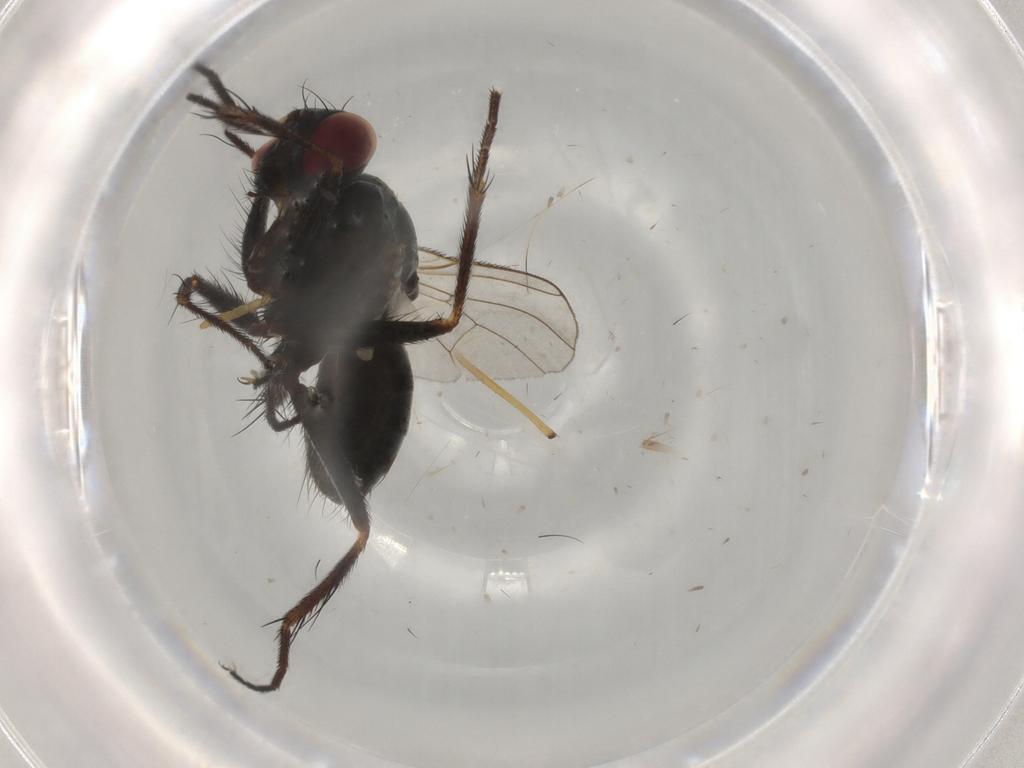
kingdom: Animalia
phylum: Arthropoda
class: Insecta
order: Diptera
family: Muscidae
